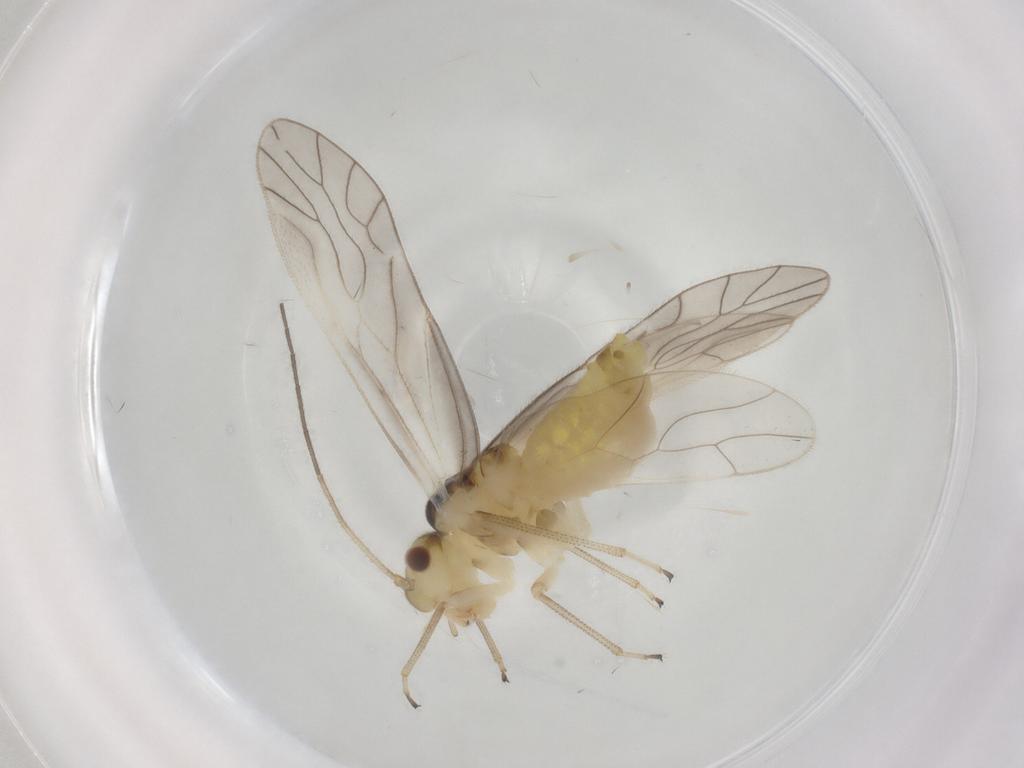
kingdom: Animalia
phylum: Arthropoda
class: Insecta
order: Psocodea
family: Caeciliusidae
